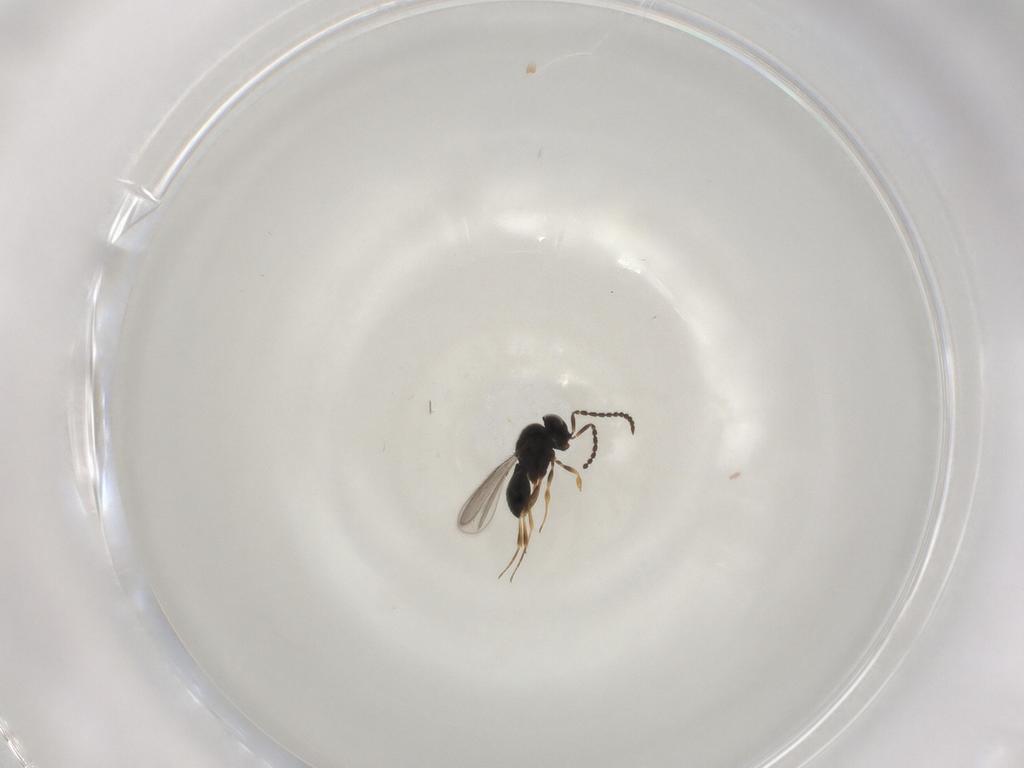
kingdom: Animalia
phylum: Arthropoda
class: Insecta
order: Hymenoptera
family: Scelionidae
